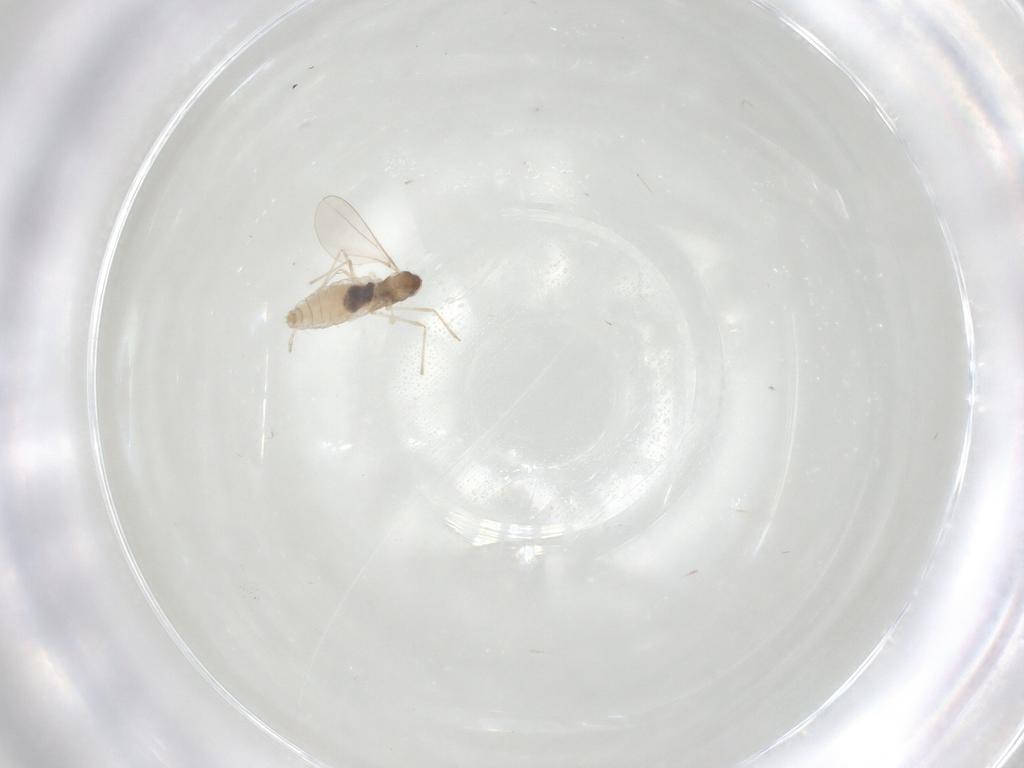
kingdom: Animalia
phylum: Arthropoda
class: Insecta
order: Diptera
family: Cecidomyiidae
